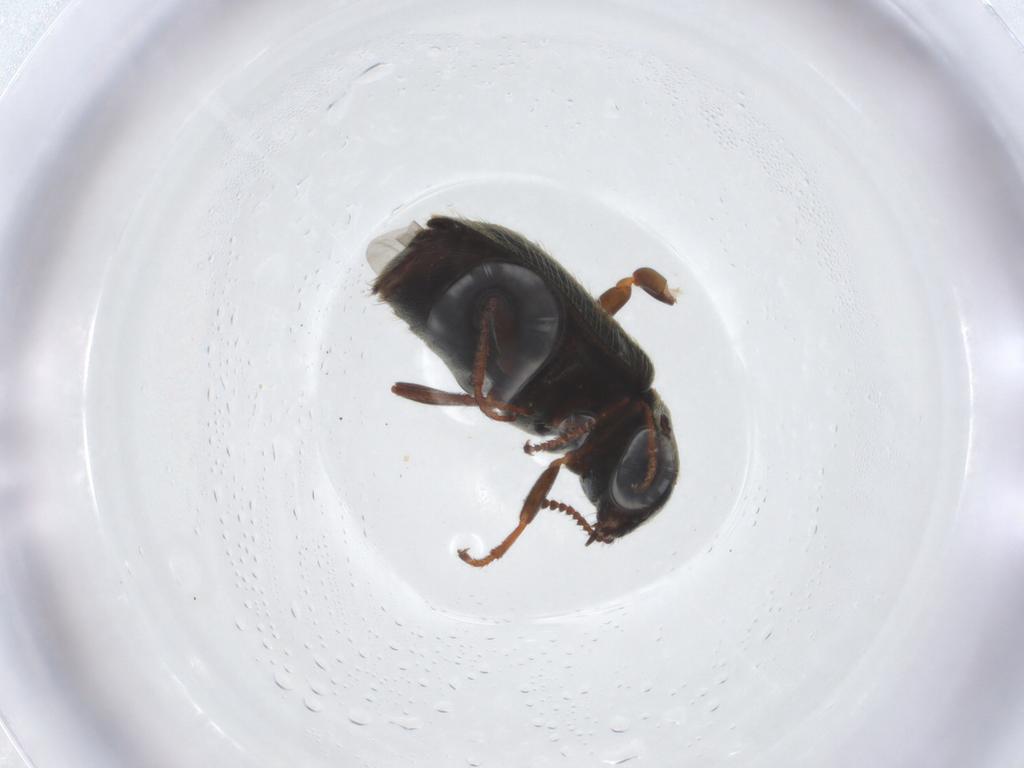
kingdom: Animalia
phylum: Arthropoda
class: Insecta
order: Coleoptera
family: Dasytidae
